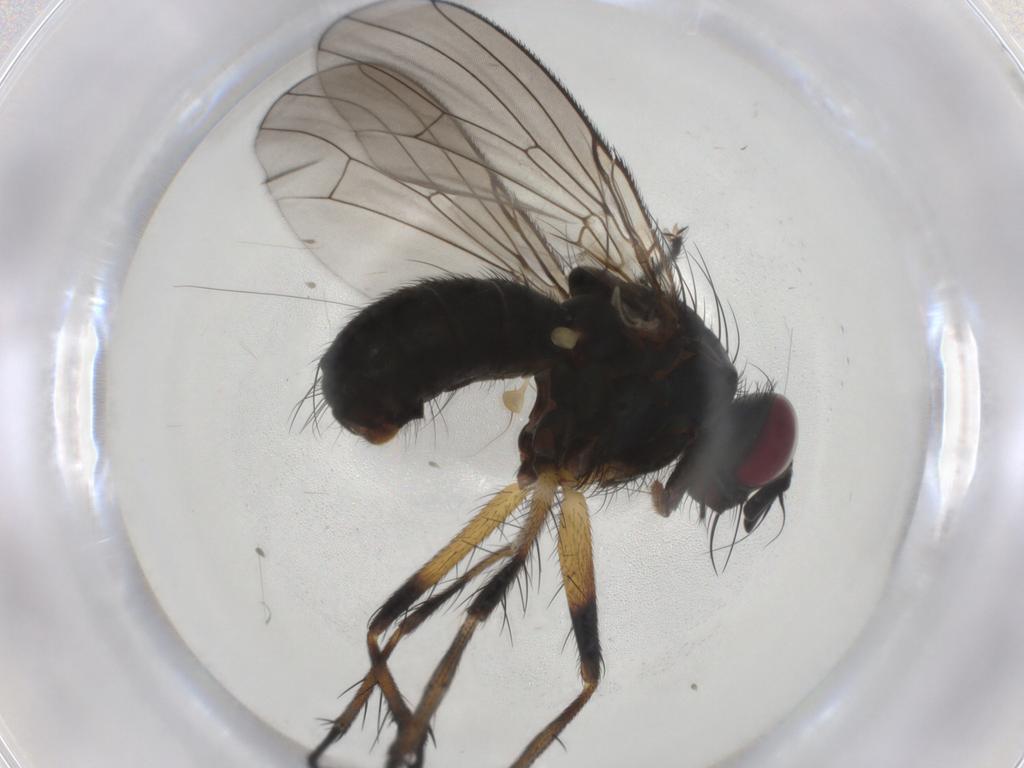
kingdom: Animalia
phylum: Arthropoda
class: Insecta
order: Diptera
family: Muscidae
